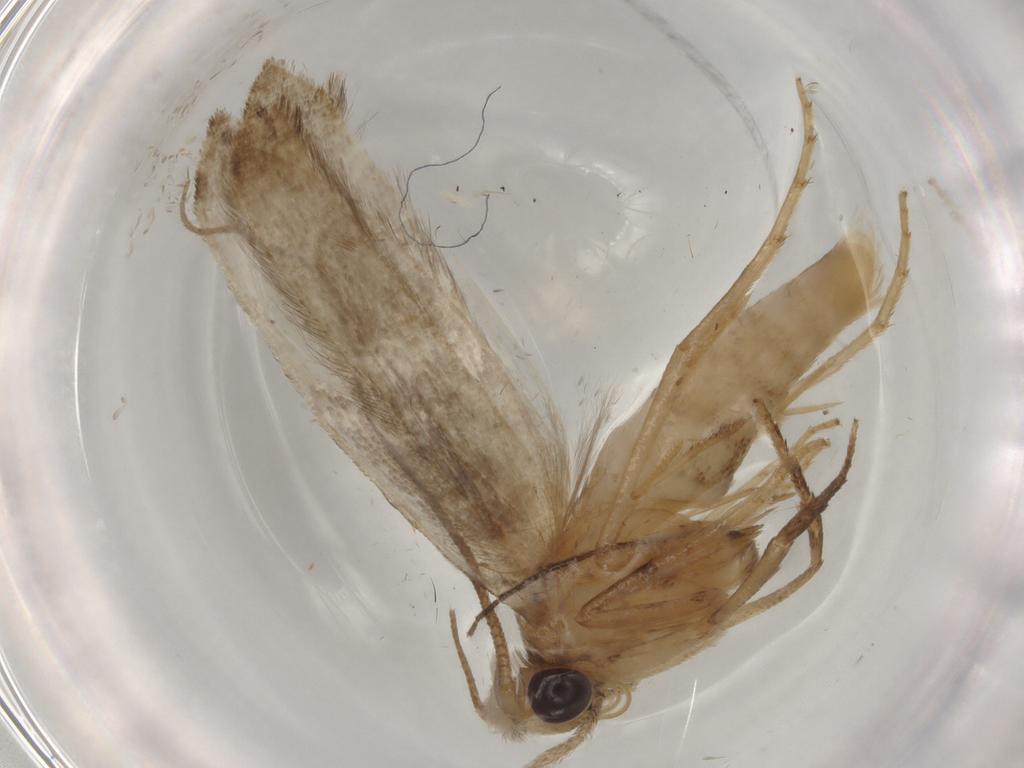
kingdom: Animalia
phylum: Arthropoda
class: Insecta
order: Lepidoptera
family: Yponomeutidae
